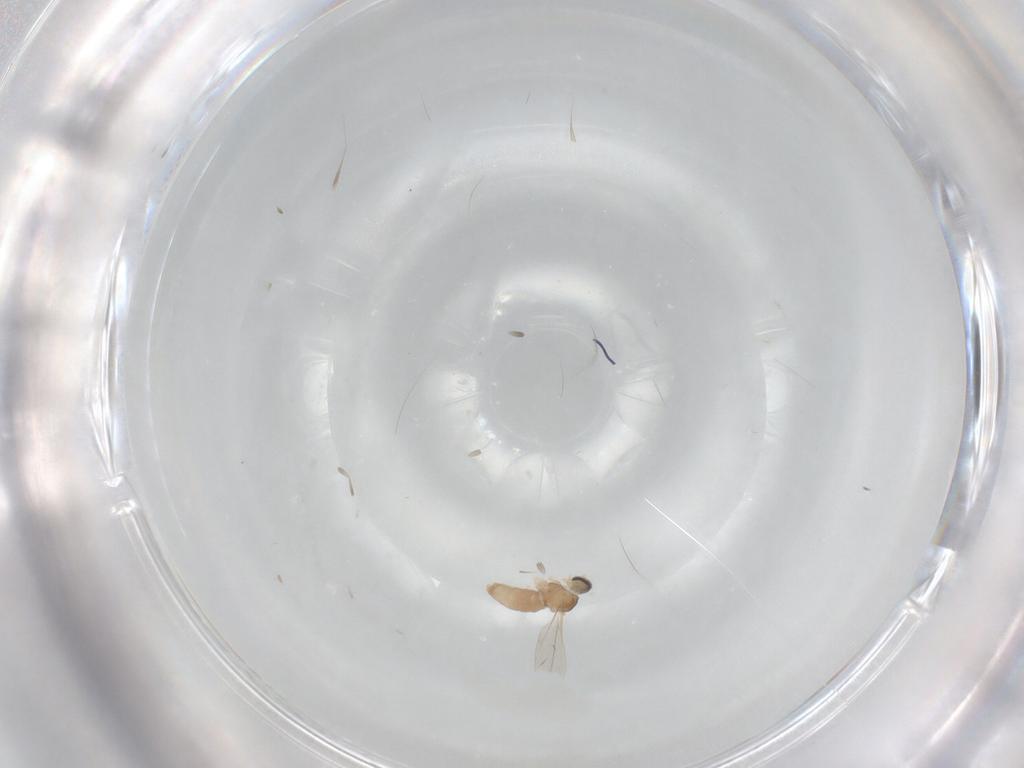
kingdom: Animalia
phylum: Arthropoda
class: Insecta
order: Diptera
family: Cecidomyiidae
